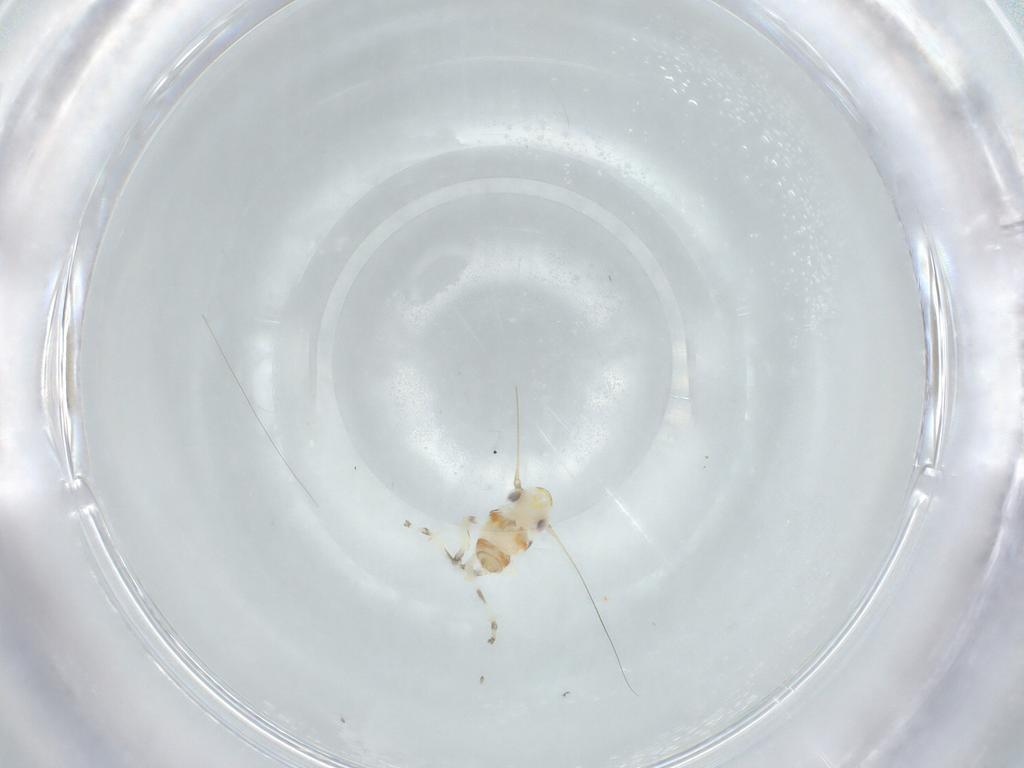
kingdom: Animalia
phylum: Arthropoda
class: Insecta
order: Hemiptera
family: Cicadellidae
